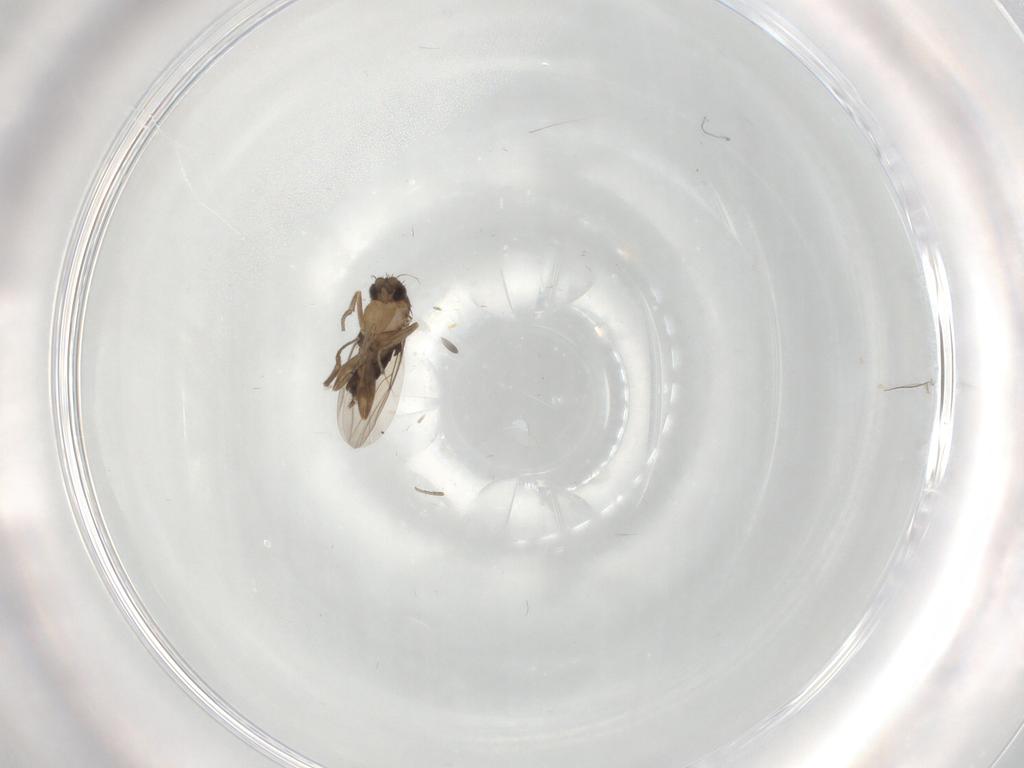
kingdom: Animalia
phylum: Arthropoda
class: Insecta
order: Diptera
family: Phoridae
